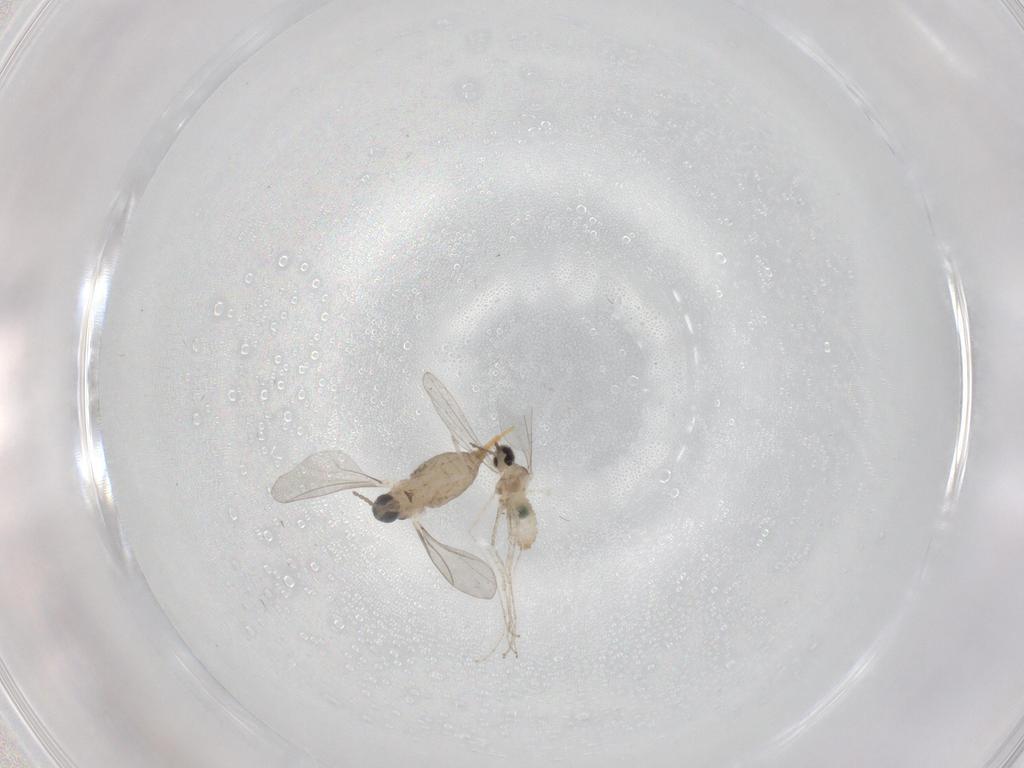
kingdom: Animalia
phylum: Arthropoda
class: Insecta
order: Diptera
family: Cecidomyiidae
